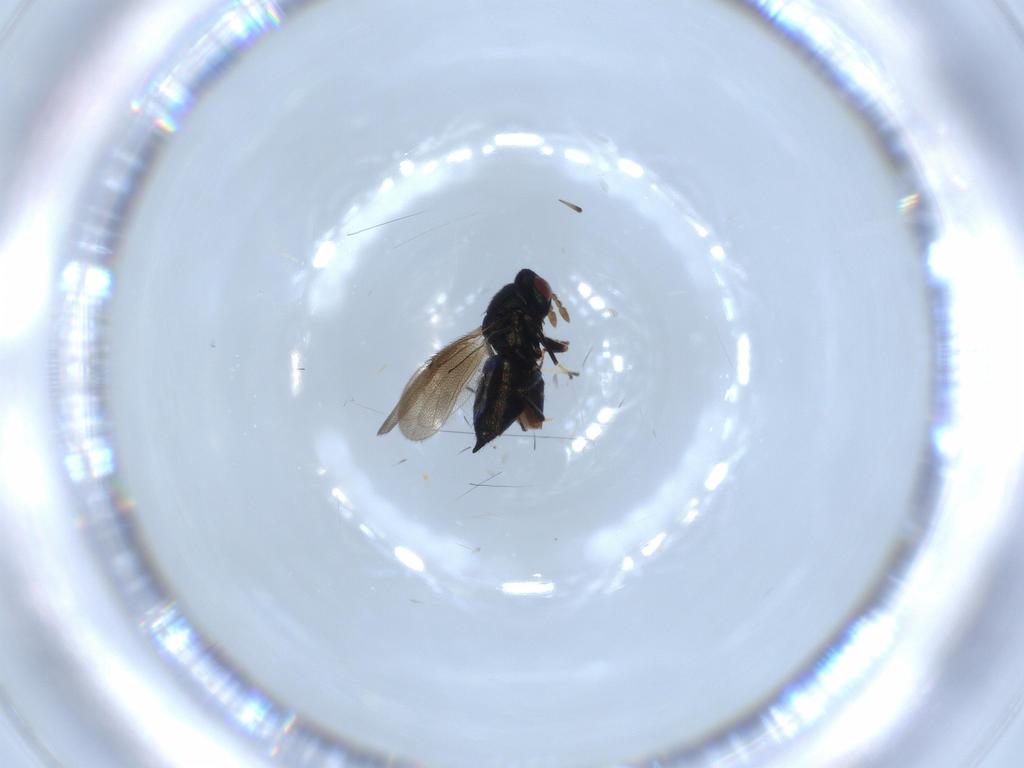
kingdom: Animalia
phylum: Arthropoda
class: Insecta
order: Hymenoptera
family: Eulophidae
